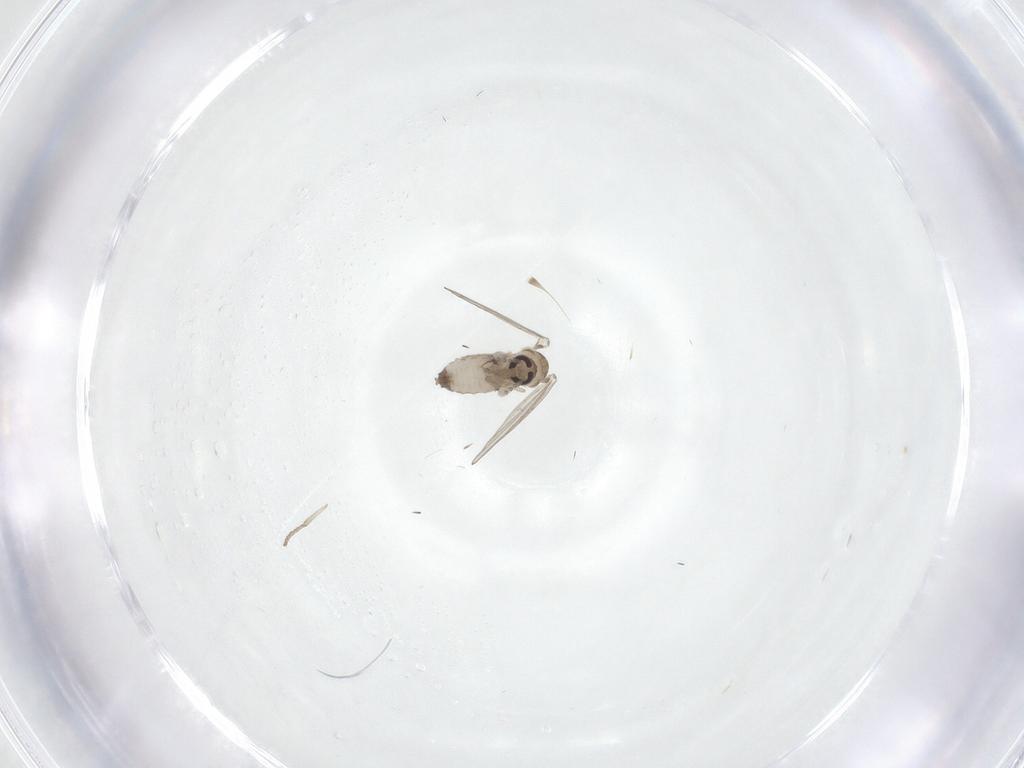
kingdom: Animalia
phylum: Arthropoda
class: Insecta
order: Diptera
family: Psychodidae
